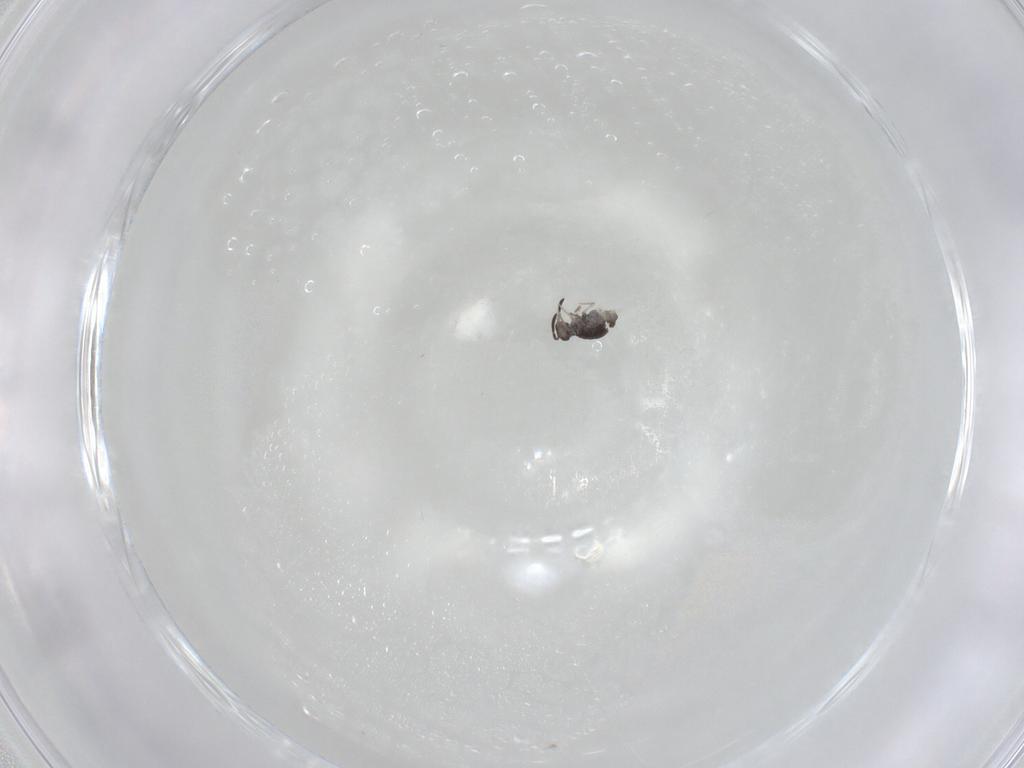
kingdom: Animalia
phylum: Arthropoda
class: Collembola
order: Symphypleona
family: Katiannidae
